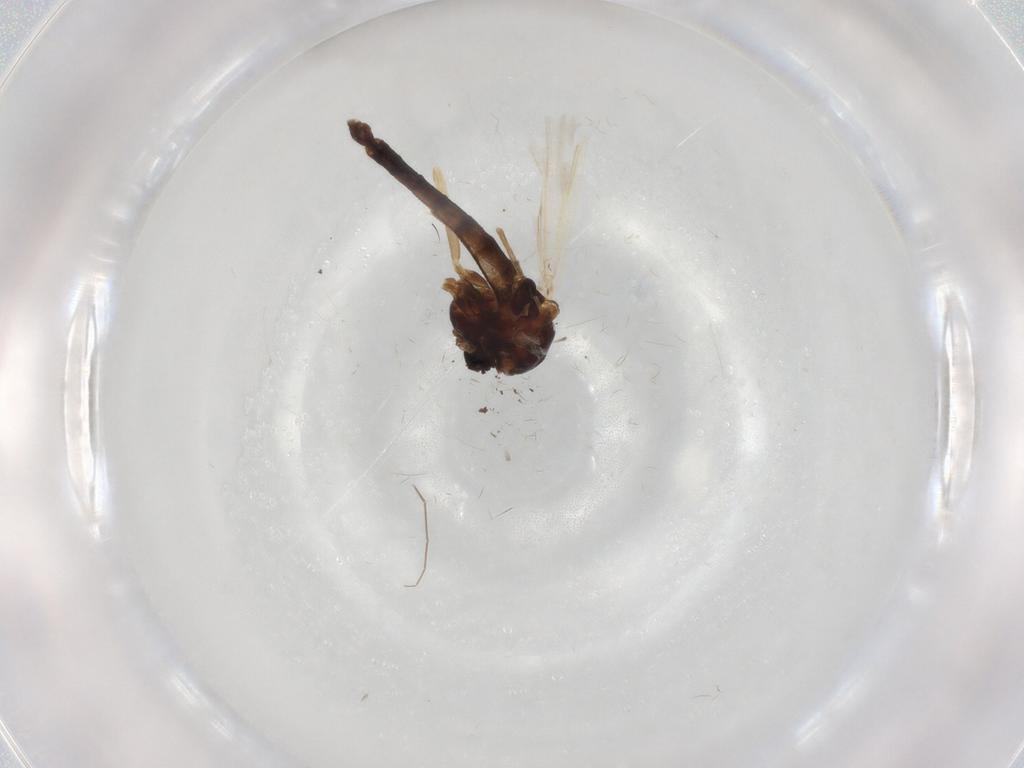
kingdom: Animalia
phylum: Arthropoda
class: Insecta
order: Diptera
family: Chironomidae
